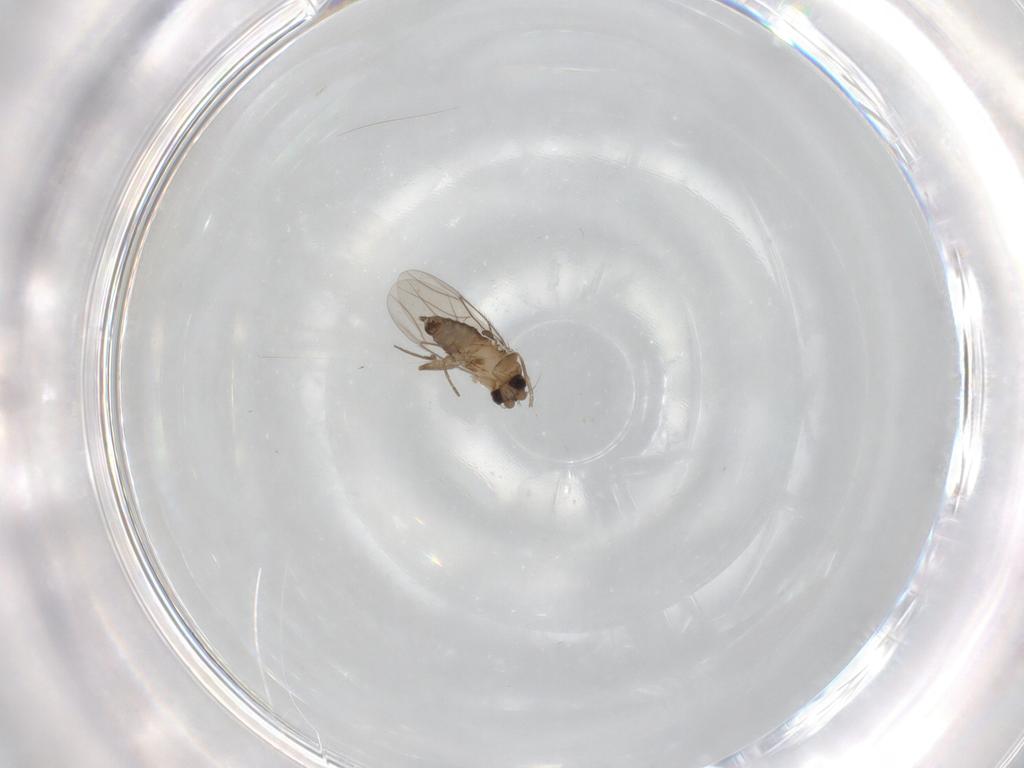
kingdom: Animalia
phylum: Arthropoda
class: Insecta
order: Diptera
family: Phoridae
